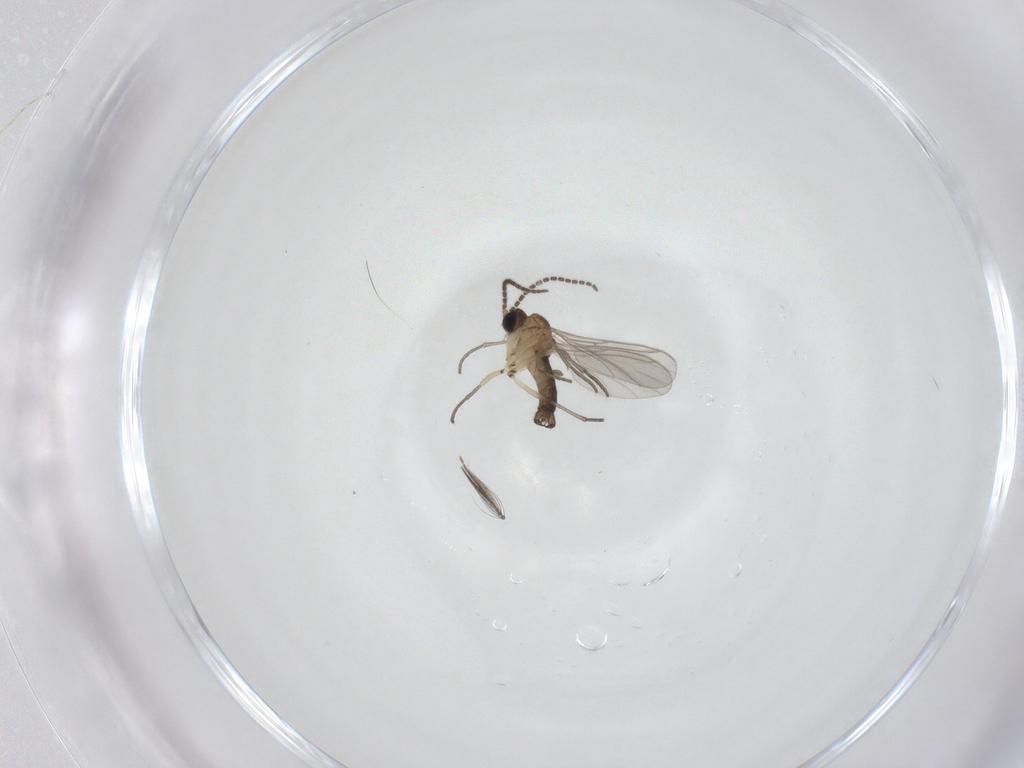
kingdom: Animalia
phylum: Arthropoda
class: Insecta
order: Diptera
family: Sciaridae
